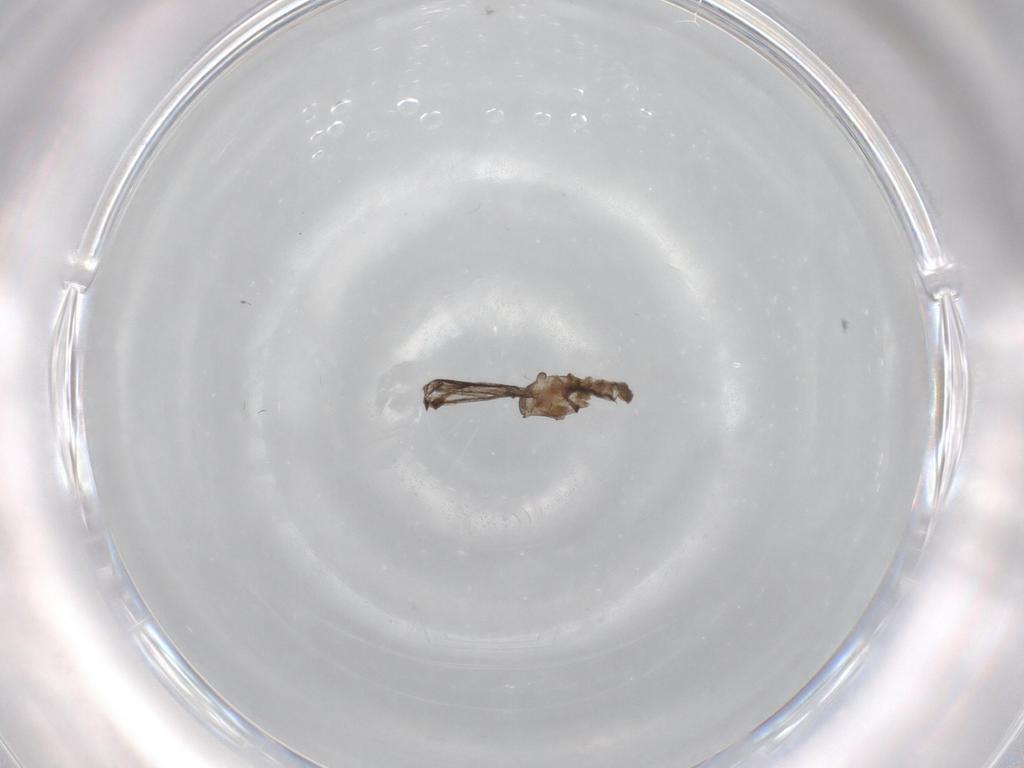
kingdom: Animalia
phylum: Arthropoda
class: Insecta
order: Diptera
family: Cecidomyiidae
